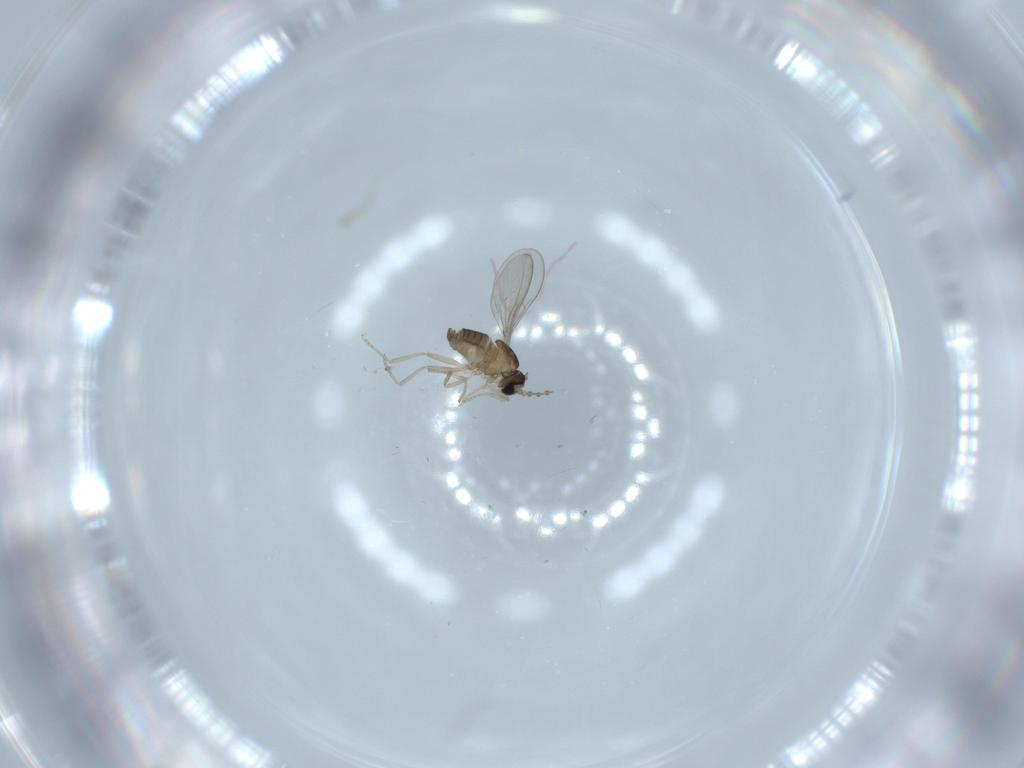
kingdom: Animalia
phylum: Arthropoda
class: Insecta
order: Diptera
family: Cecidomyiidae
